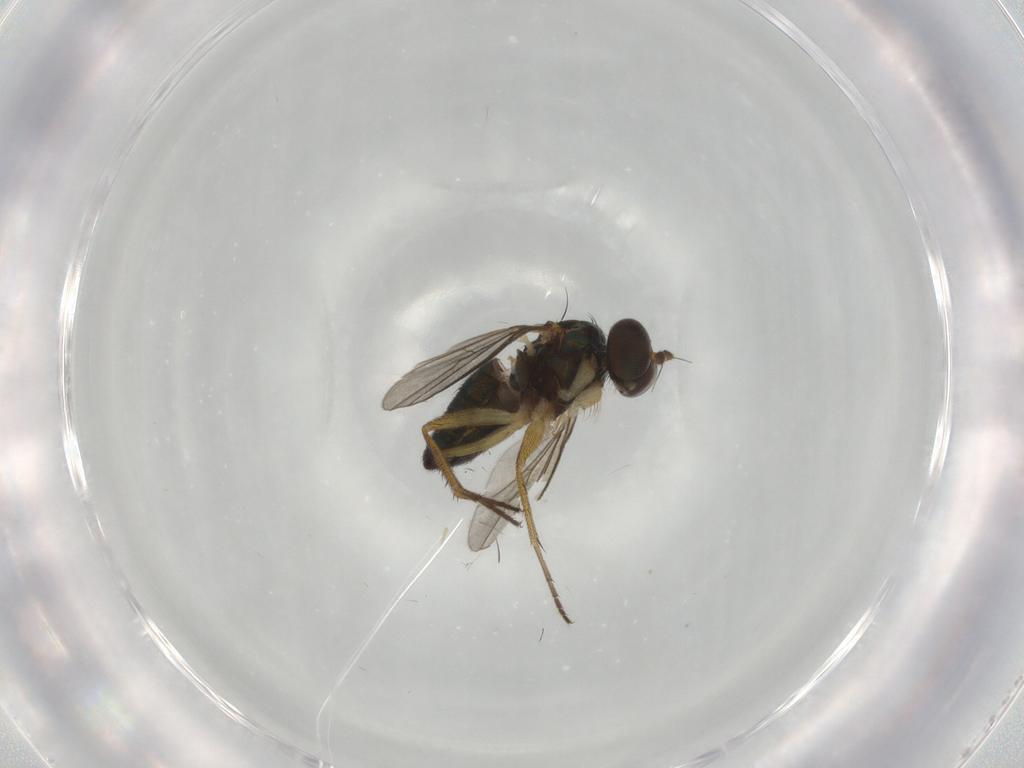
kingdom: Animalia
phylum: Arthropoda
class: Insecta
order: Diptera
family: Dolichopodidae
